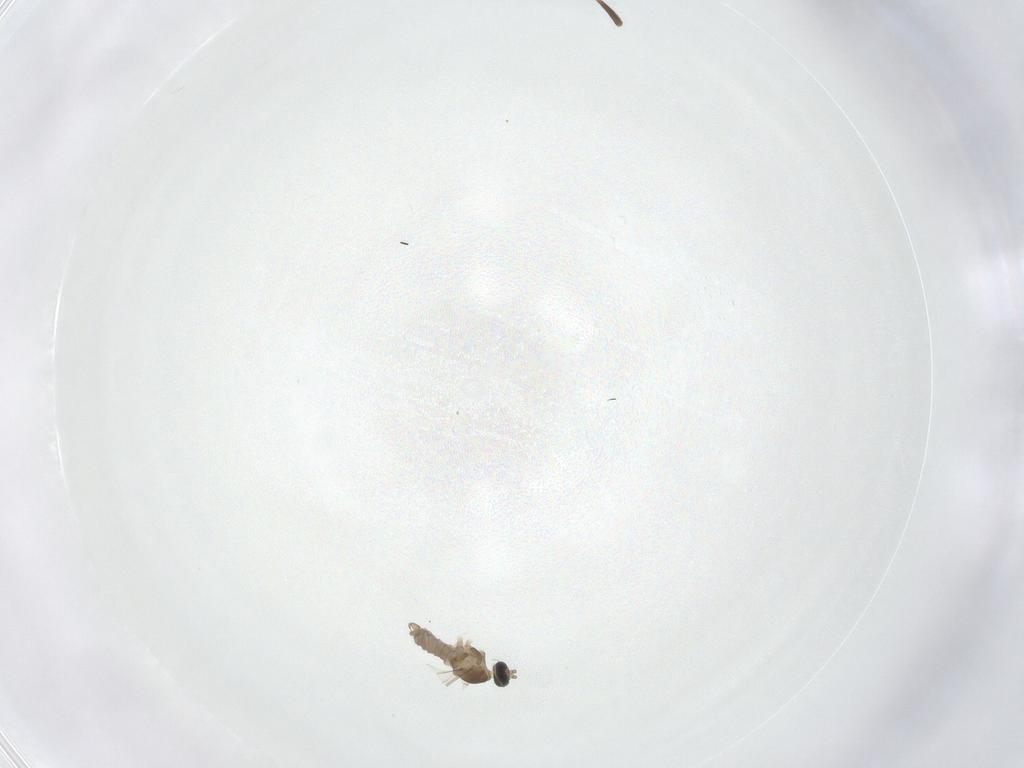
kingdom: Animalia
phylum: Arthropoda
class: Insecta
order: Diptera
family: Cecidomyiidae
